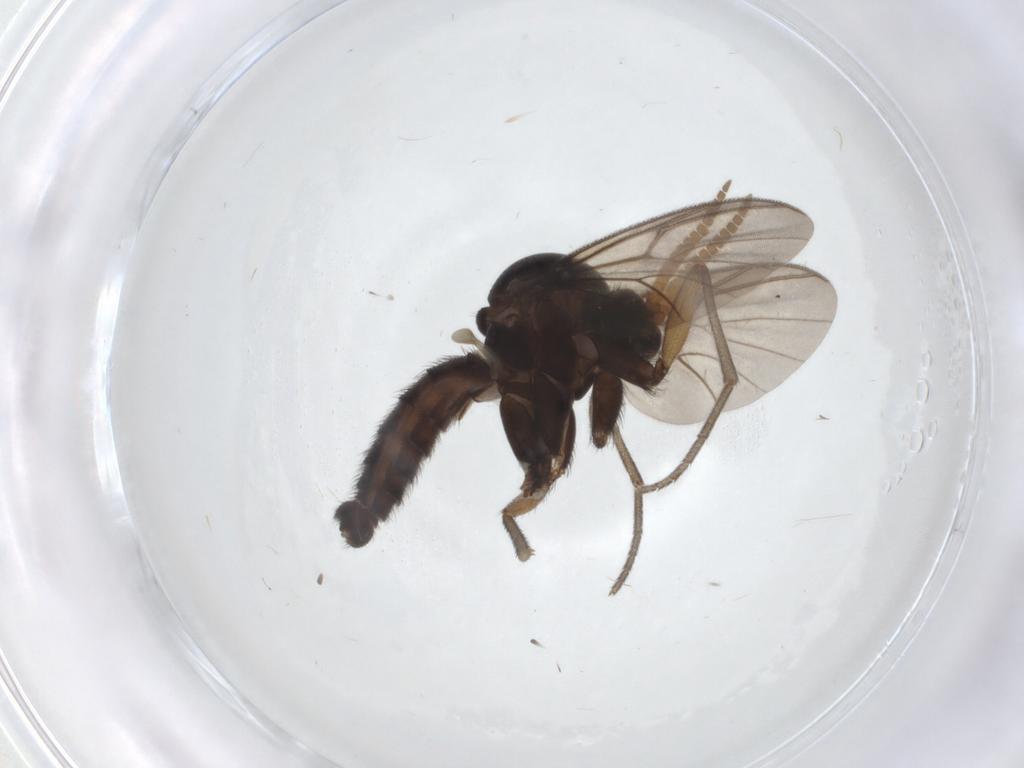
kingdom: Animalia
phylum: Arthropoda
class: Insecta
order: Diptera
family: Mycetophilidae
